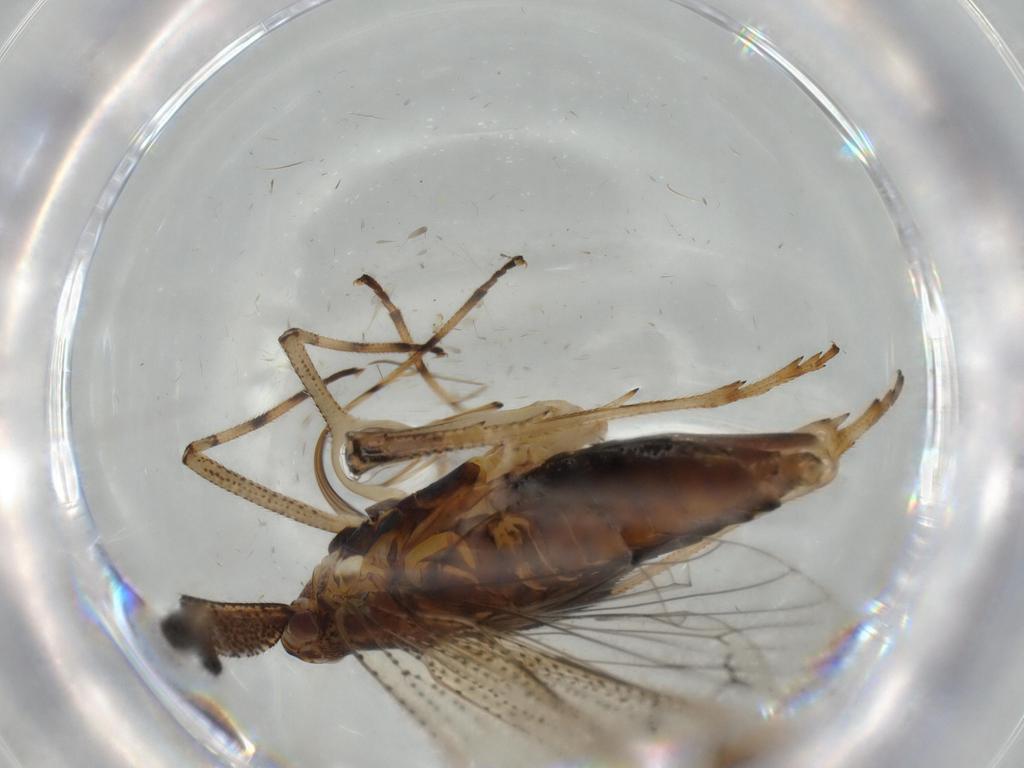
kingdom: Animalia
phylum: Arthropoda
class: Insecta
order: Hemiptera
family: Delphacidae
